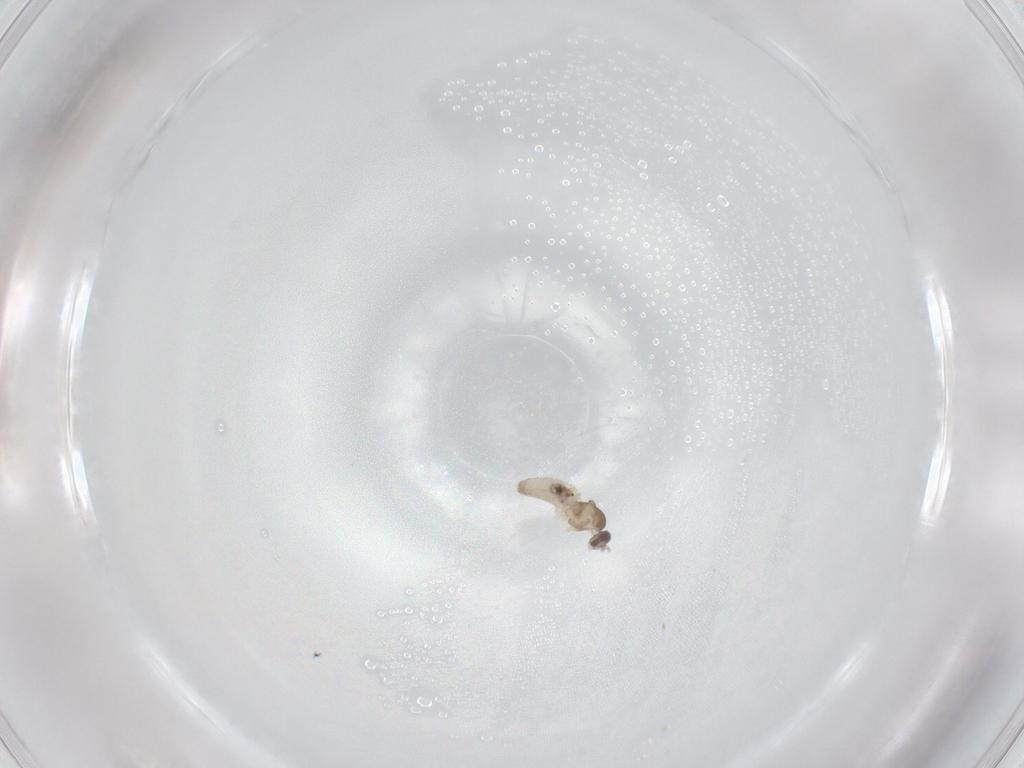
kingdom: Animalia
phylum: Arthropoda
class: Insecta
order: Diptera
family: Cecidomyiidae
